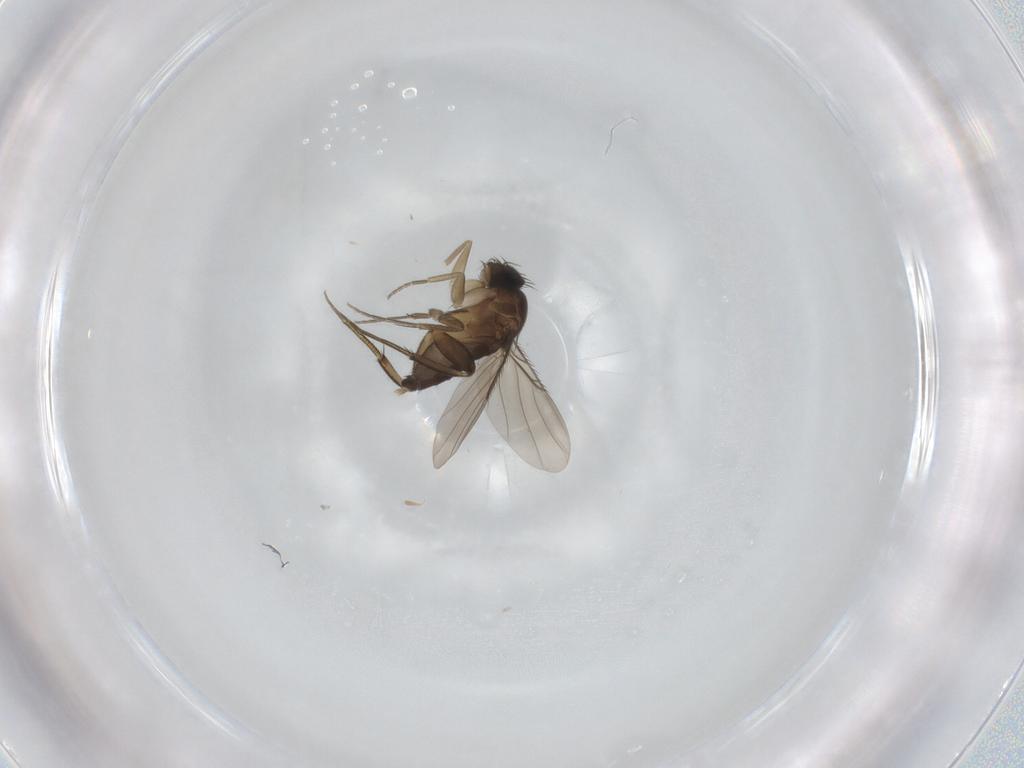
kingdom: Animalia
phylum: Arthropoda
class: Insecta
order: Diptera
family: Phoridae
